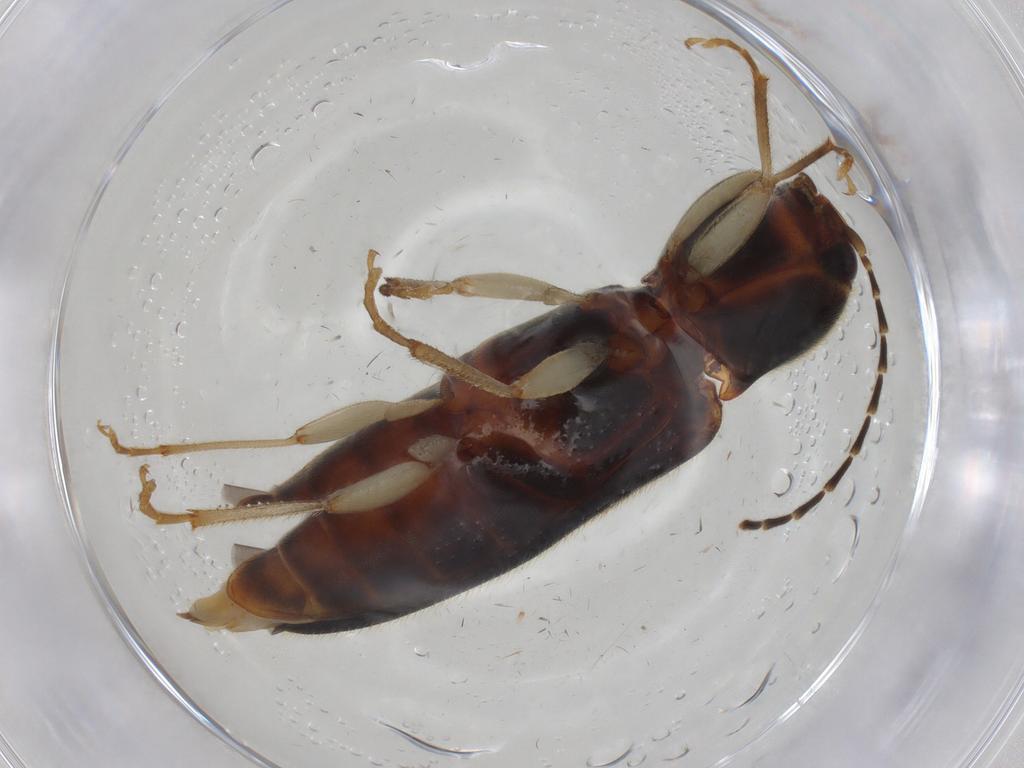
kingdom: Animalia
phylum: Arthropoda
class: Insecta
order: Coleoptera
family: Elateridae
